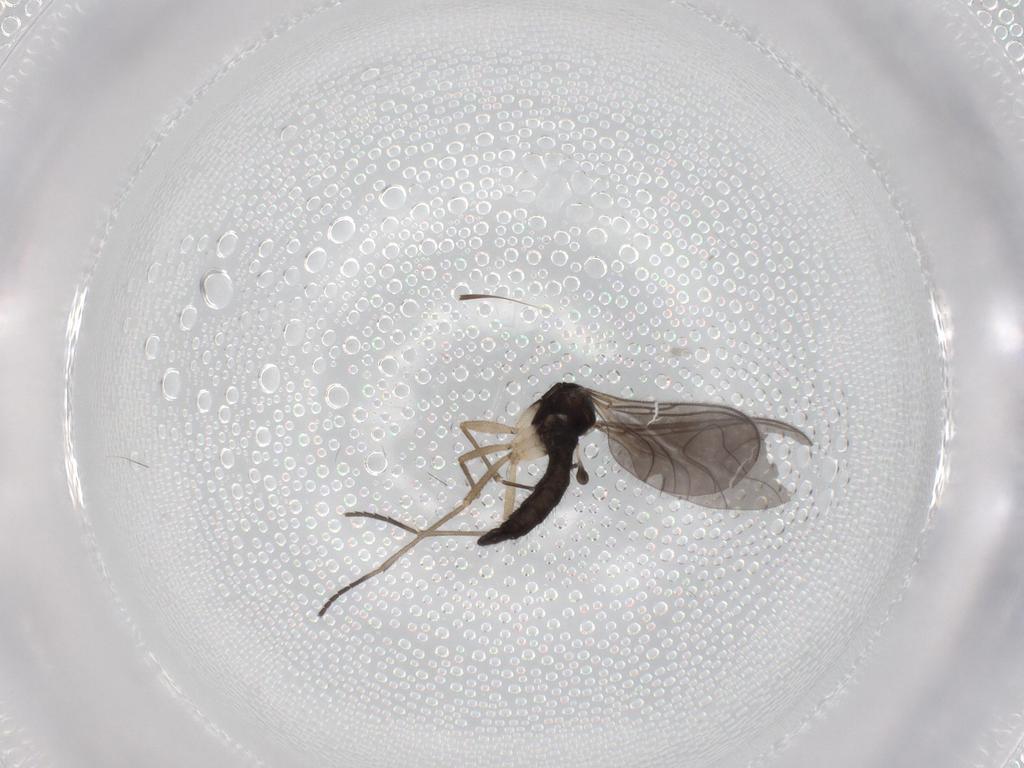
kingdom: Animalia
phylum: Arthropoda
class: Insecta
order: Diptera
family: Sciaridae
